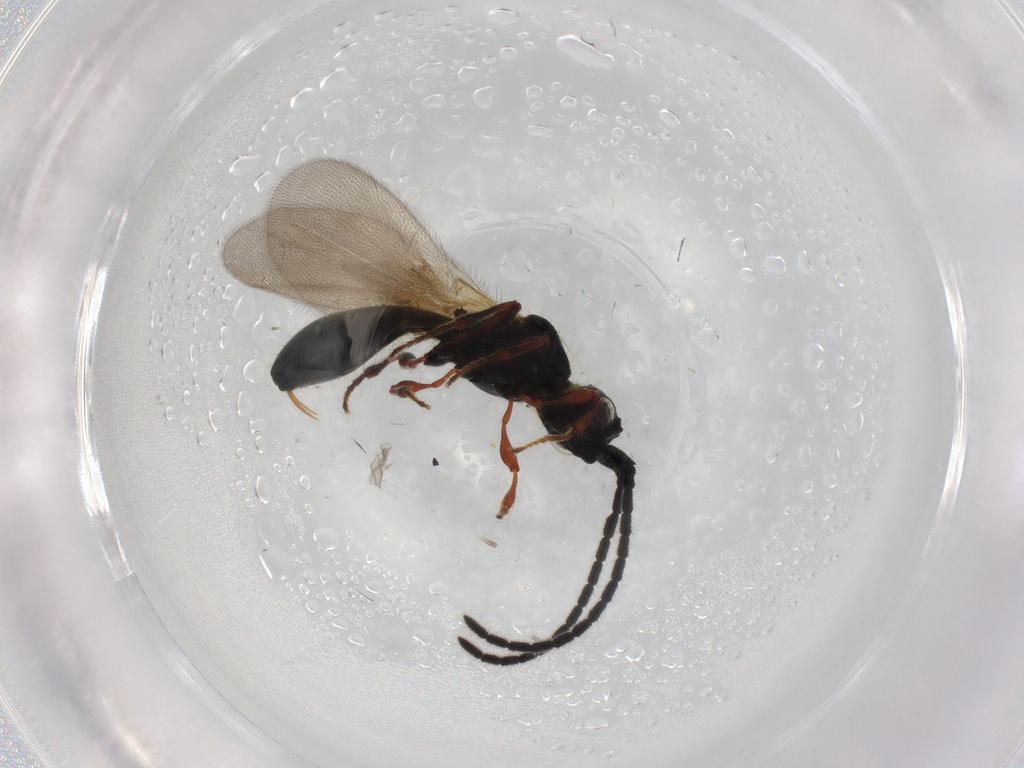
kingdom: Animalia
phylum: Arthropoda
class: Insecta
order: Hymenoptera
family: Diapriidae
